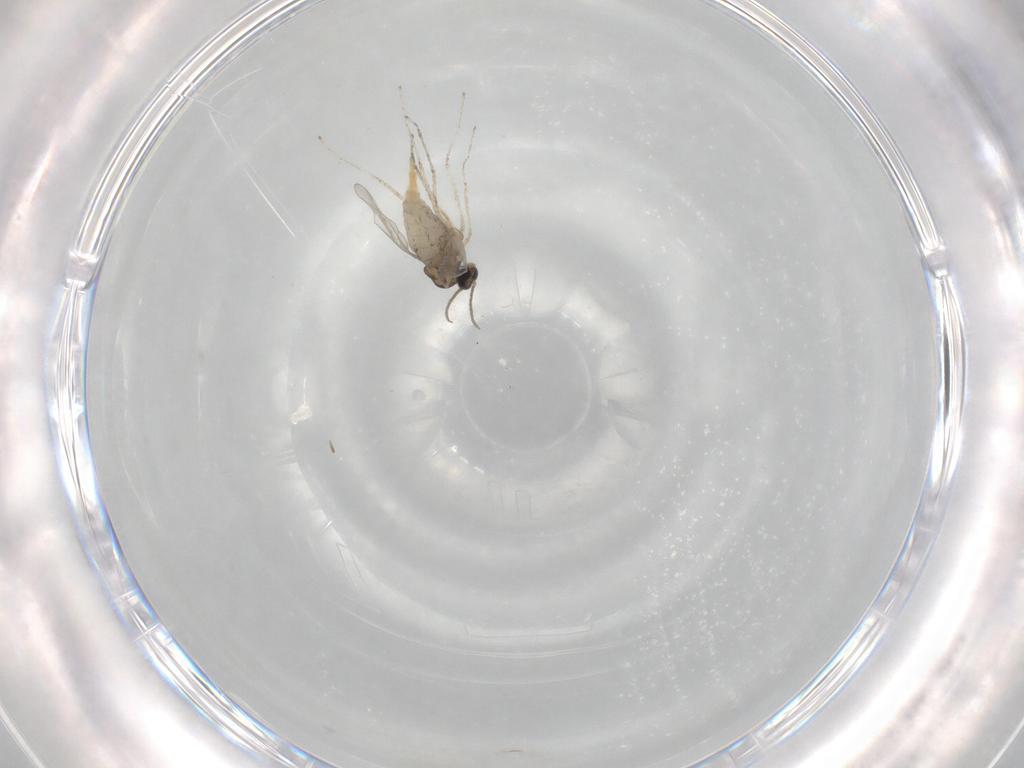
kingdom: Animalia
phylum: Arthropoda
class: Insecta
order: Diptera
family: Cecidomyiidae
